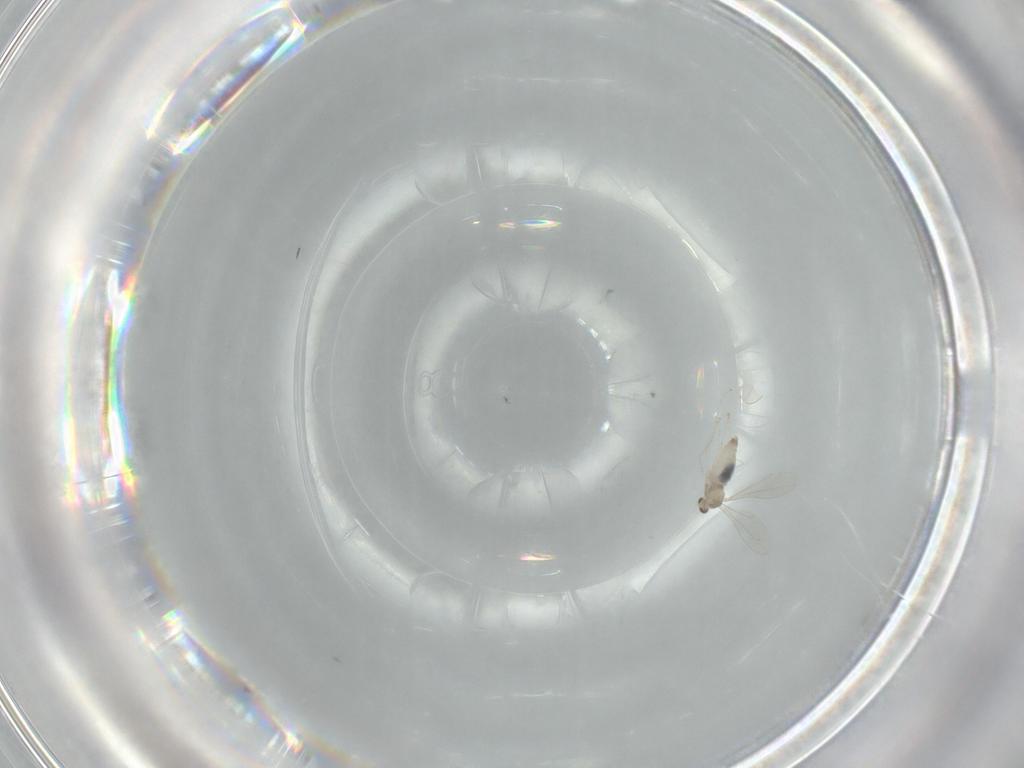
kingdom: Animalia
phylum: Arthropoda
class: Insecta
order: Diptera
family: Cecidomyiidae
